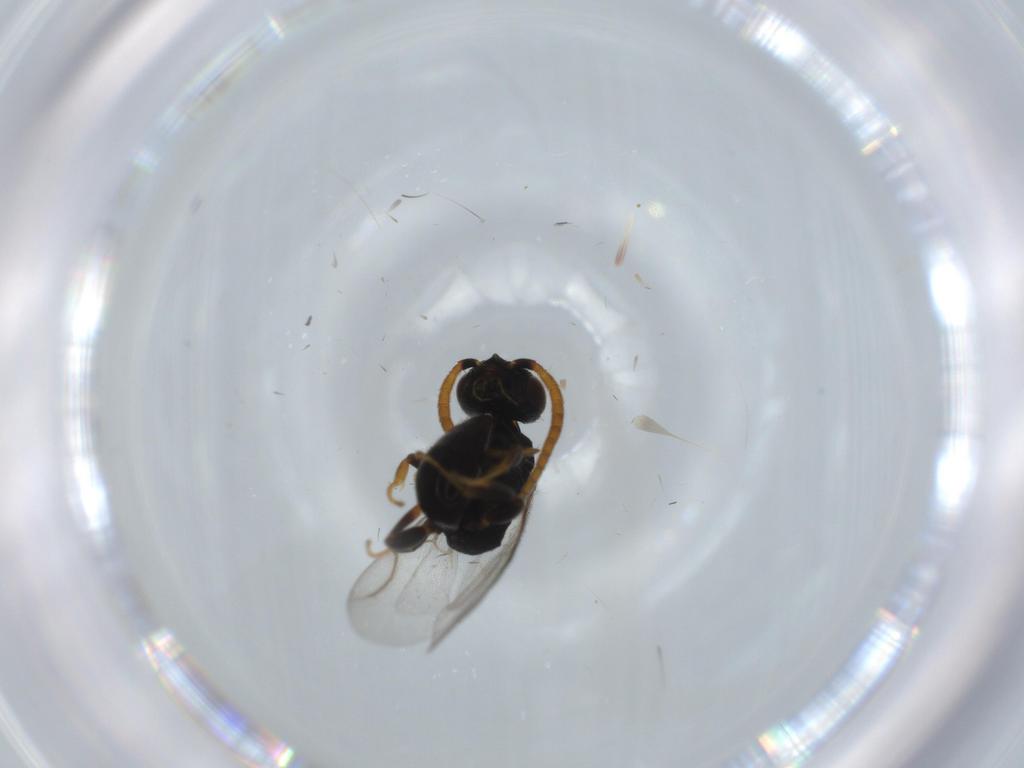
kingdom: Animalia
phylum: Arthropoda
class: Insecta
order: Hymenoptera
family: Bethylidae
